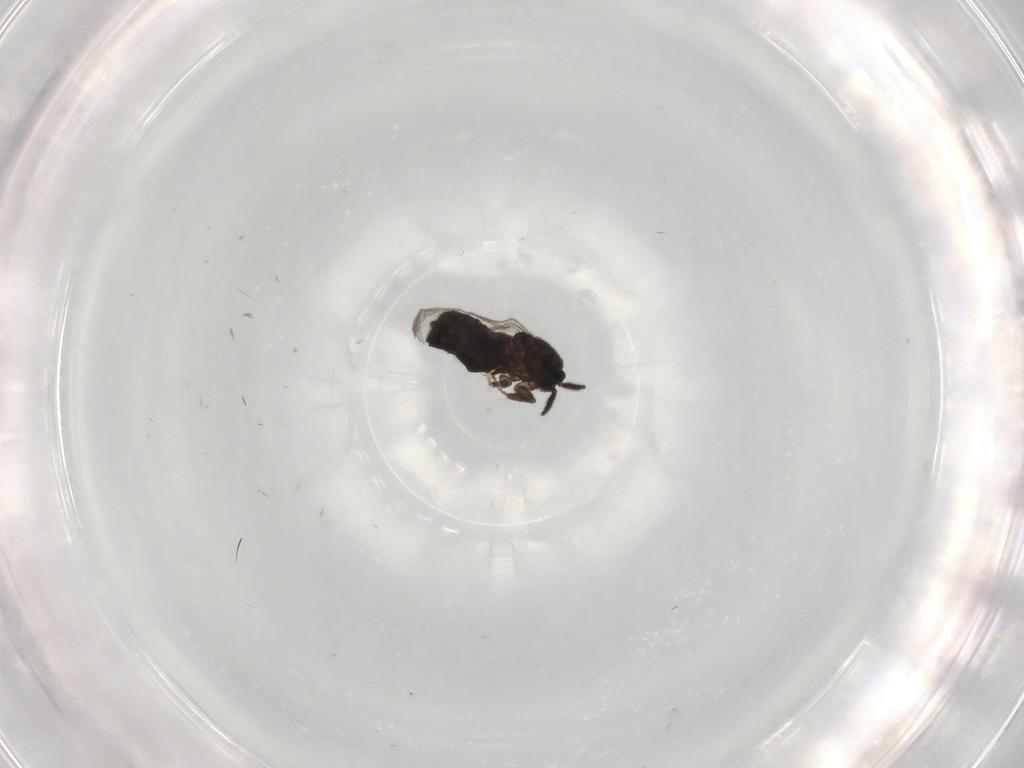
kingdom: Animalia
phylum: Arthropoda
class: Insecta
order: Diptera
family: Scatopsidae
